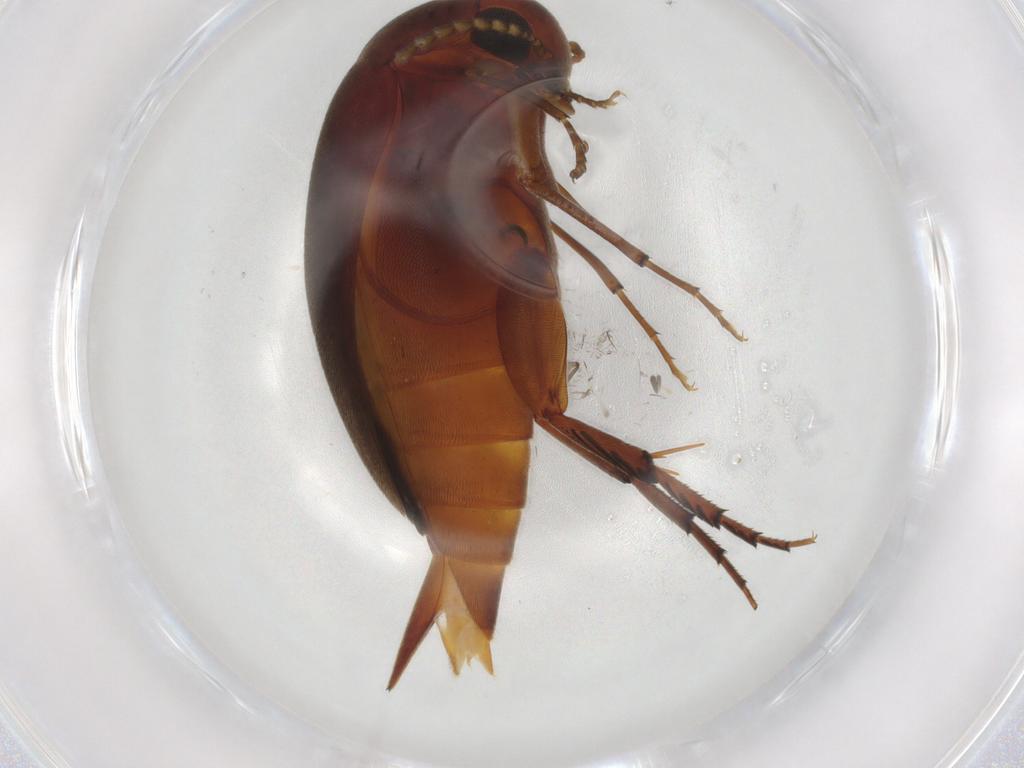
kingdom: Animalia
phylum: Arthropoda
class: Insecta
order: Coleoptera
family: Mordellidae
